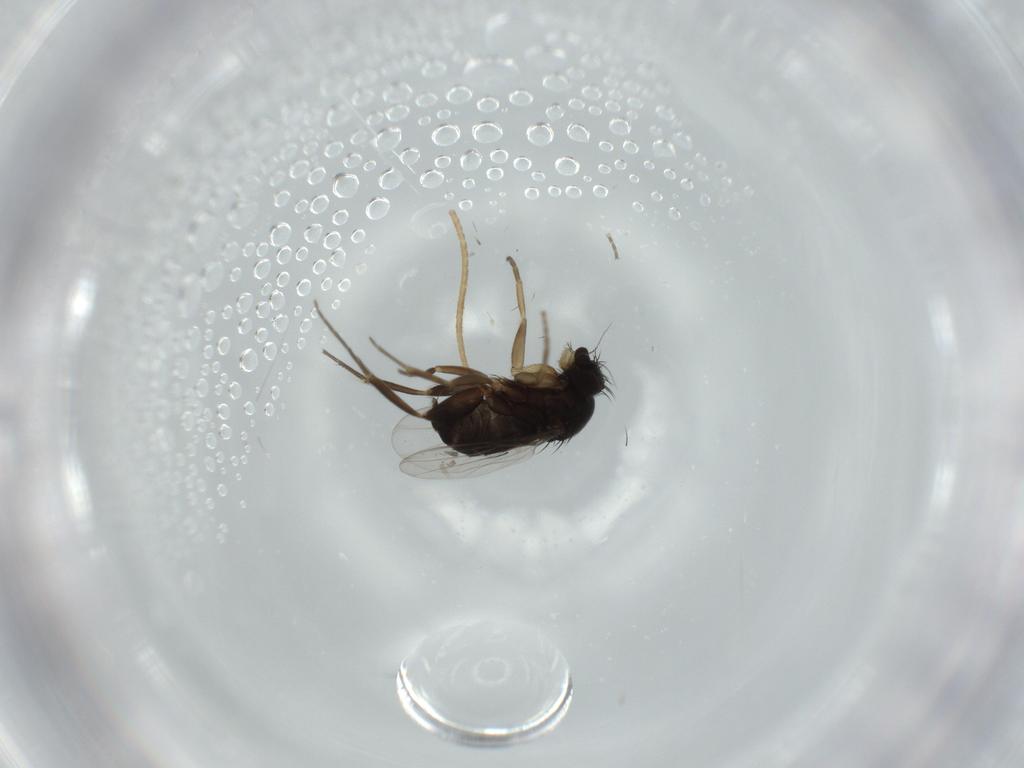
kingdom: Animalia
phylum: Arthropoda
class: Insecta
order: Diptera
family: Phoridae
